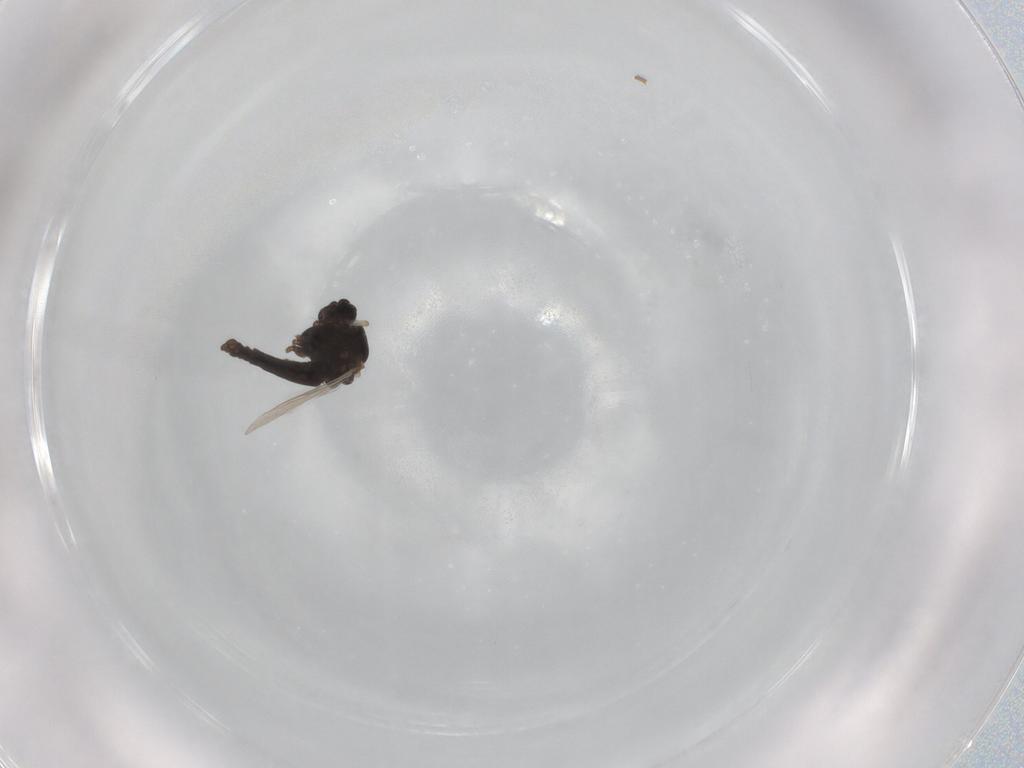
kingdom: Animalia
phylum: Arthropoda
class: Insecta
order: Diptera
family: Chironomidae
